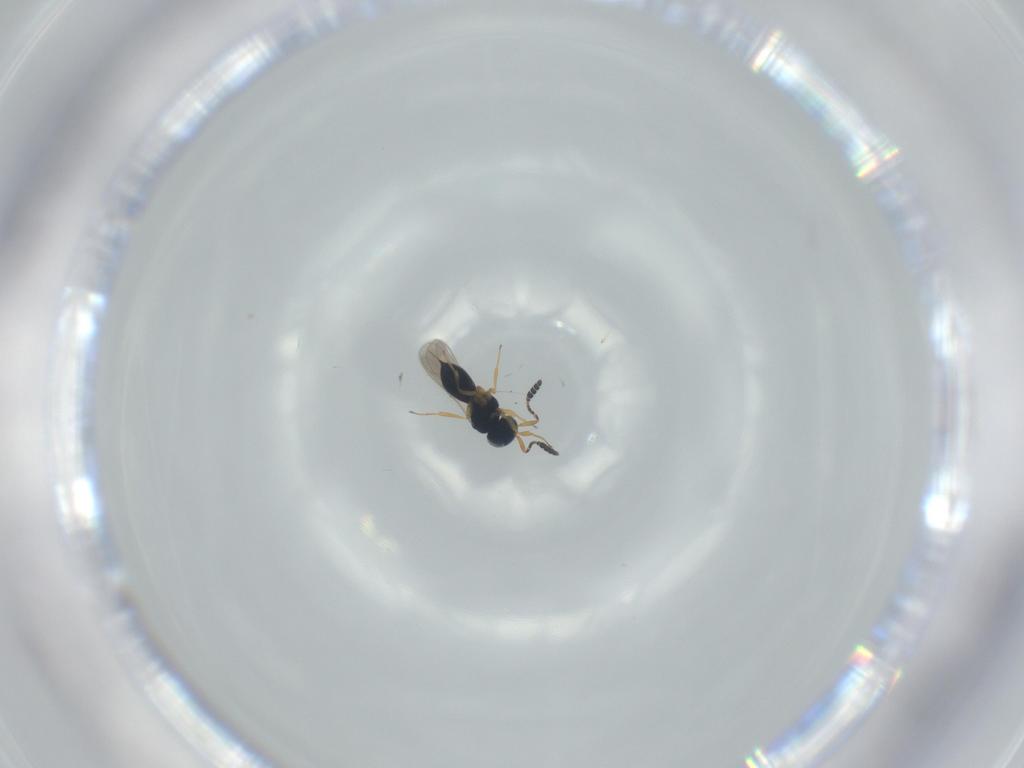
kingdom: Animalia
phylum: Arthropoda
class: Insecta
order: Hymenoptera
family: Scelionidae
